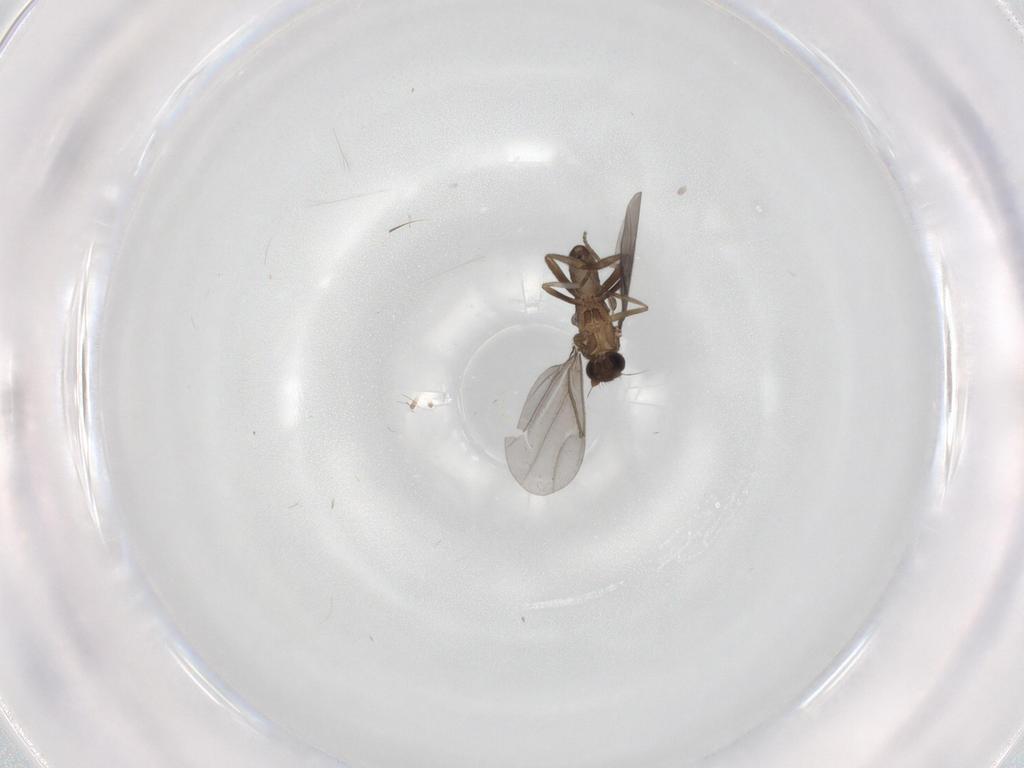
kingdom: Animalia
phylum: Arthropoda
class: Insecta
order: Diptera
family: Phoridae
